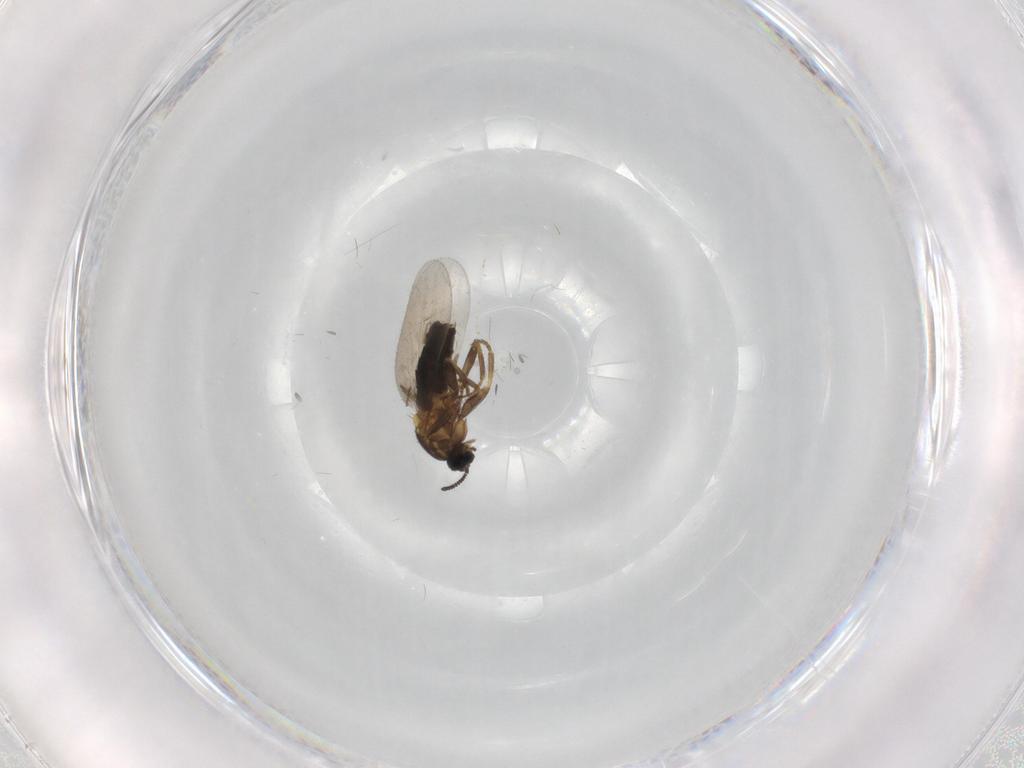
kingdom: Animalia
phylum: Arthropoda
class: Insecta
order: Diptera
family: Scatopsidae
